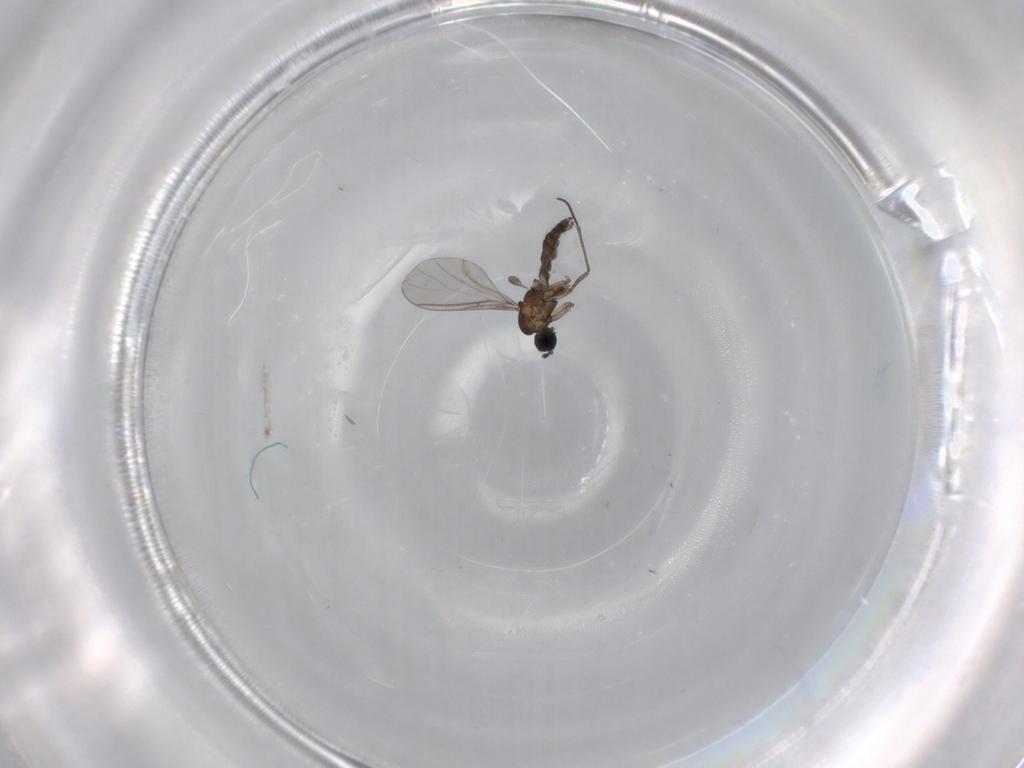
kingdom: Animalia
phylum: Arthropoda
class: Insecta
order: Diptera
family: Sciaridae
